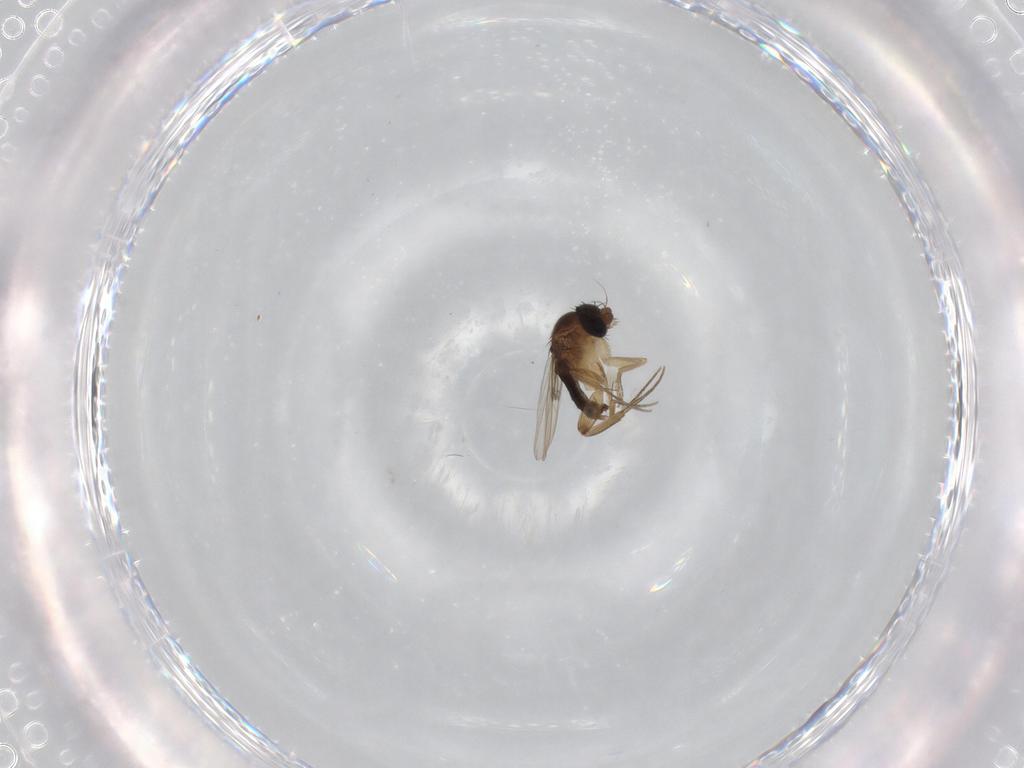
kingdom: Animalia
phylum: Arthropoda
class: Insecta
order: Diptera
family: Phoridae
